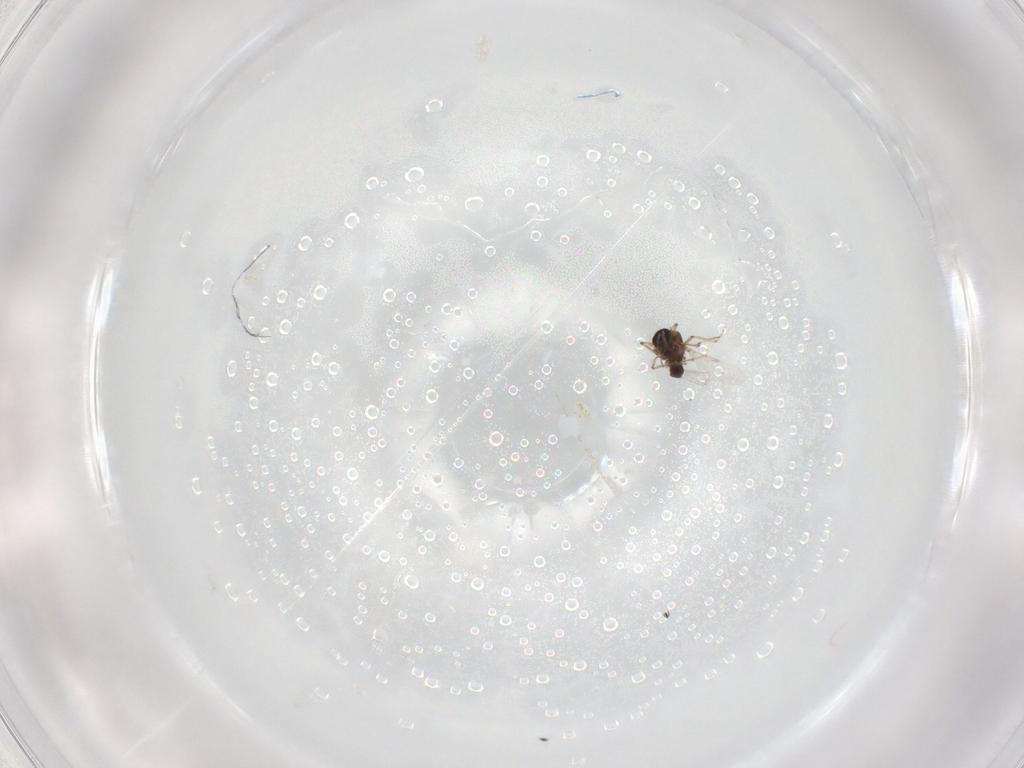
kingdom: Animalia
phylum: Arthropoda
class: Insecta
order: Diptera
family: Ceratopogonidae
